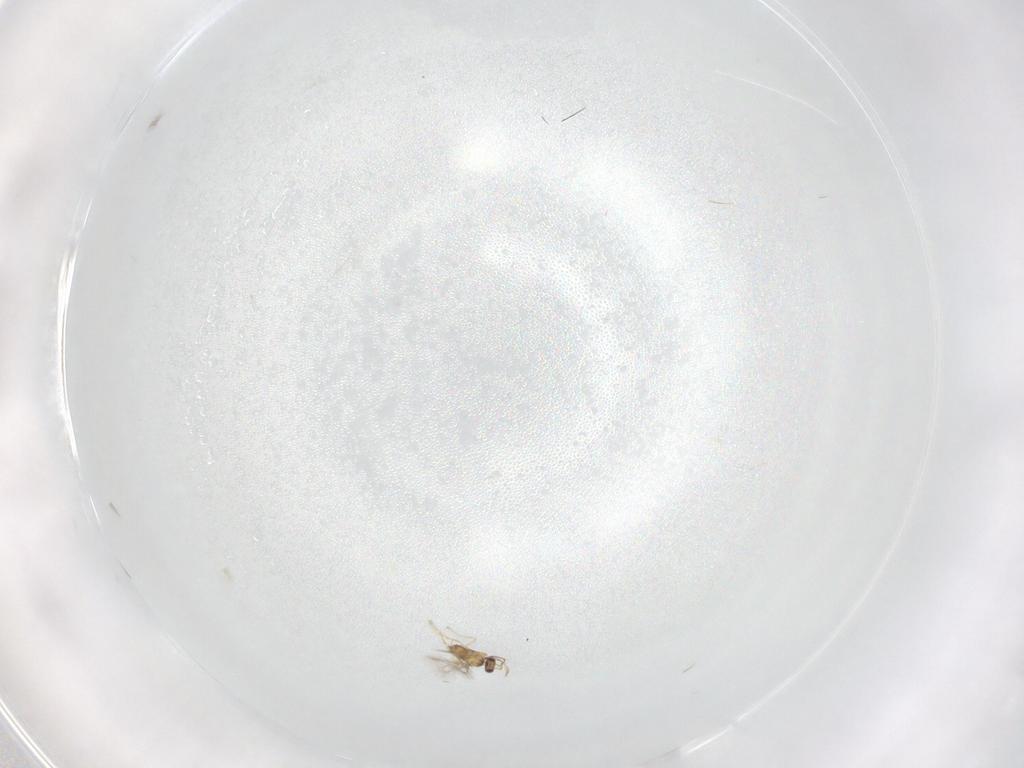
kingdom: Animalia
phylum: Arthropoda
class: Insecta
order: Hymenoptera
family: Mymaridae
